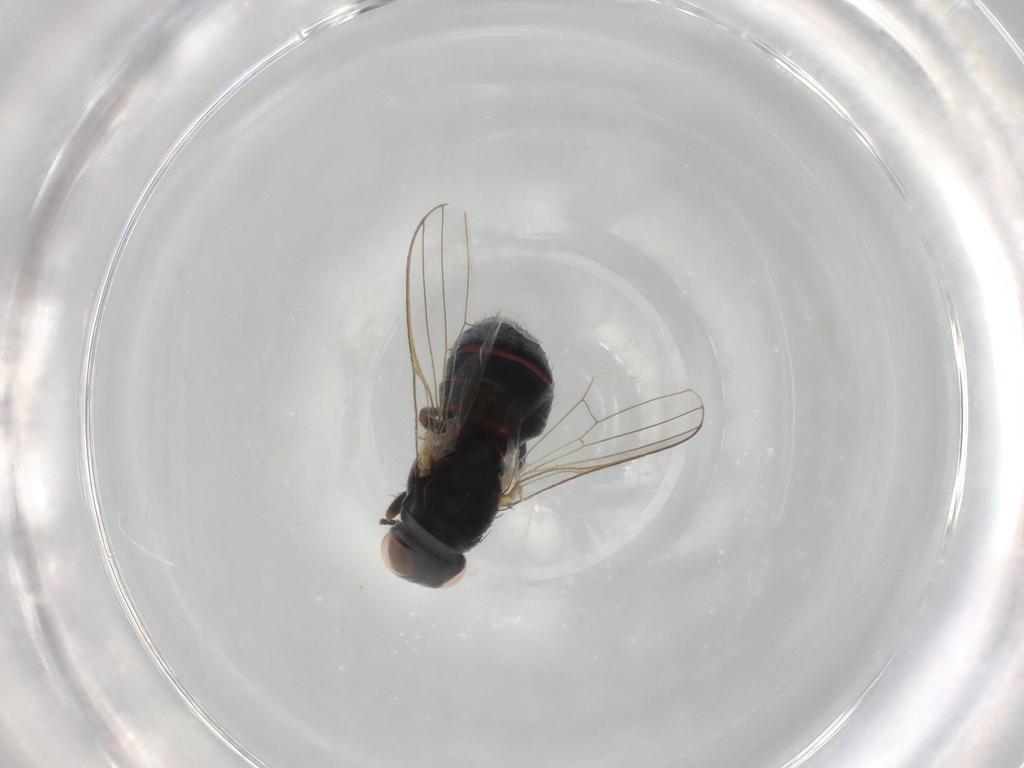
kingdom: Animalia
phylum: Arthropoda
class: Insecta
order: Diptera
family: Chamaemyiidae
